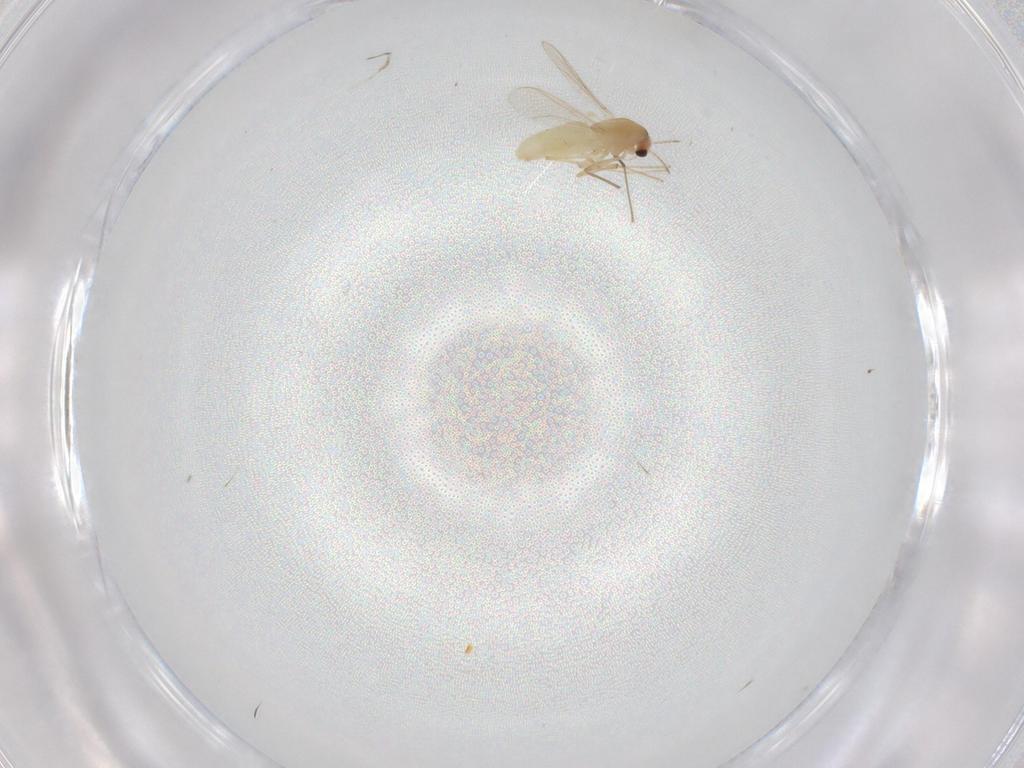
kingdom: Animalia
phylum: Arthropoda
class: Insecta
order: Diptera
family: Cecidomyiidae
